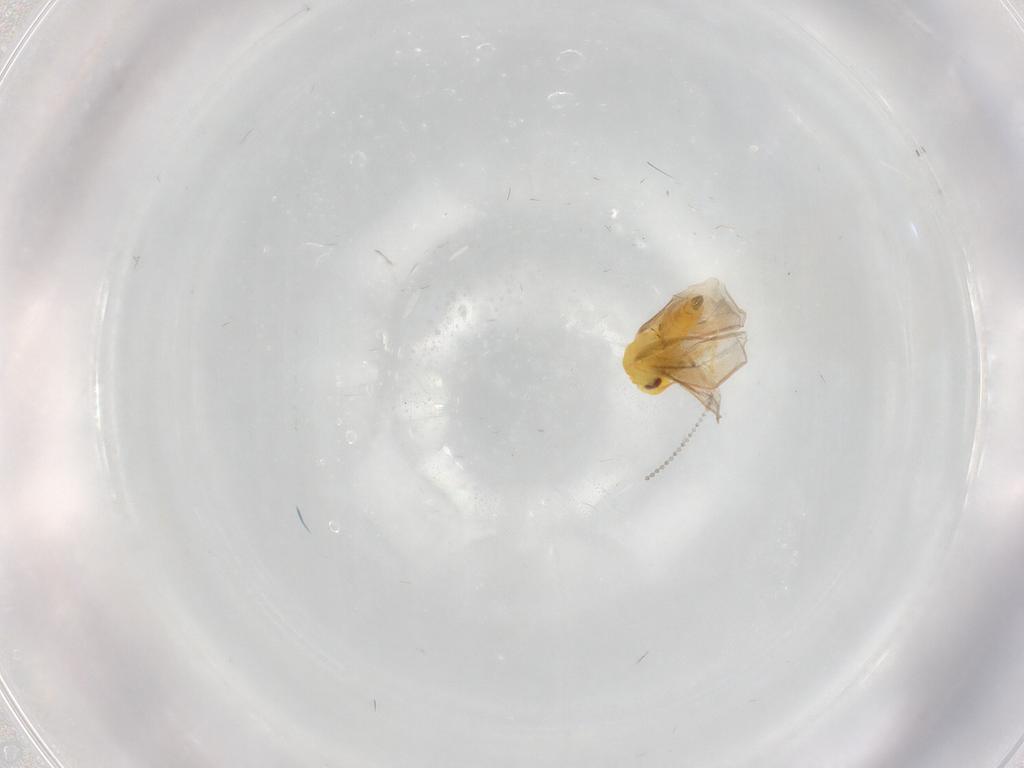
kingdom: Animalia
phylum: Arthropoda
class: Insecta
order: Hemiptera
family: Aleyrodidae
